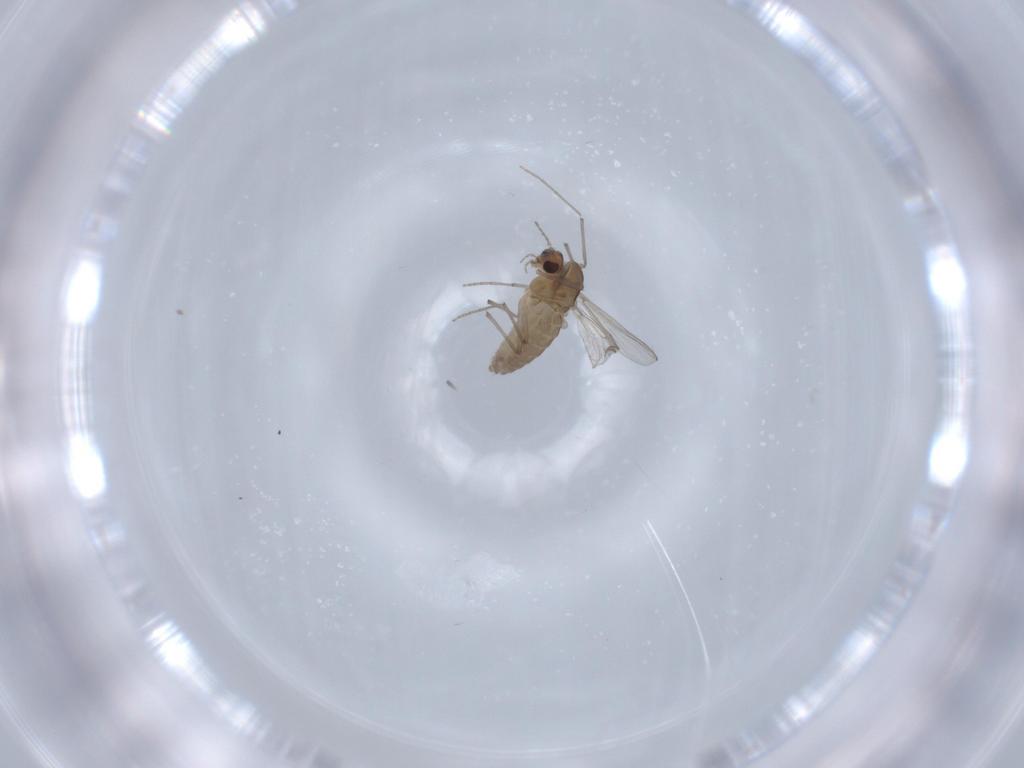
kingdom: Animalia
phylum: Arthropoda
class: Insecta
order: Diptera
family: Chironomidae
